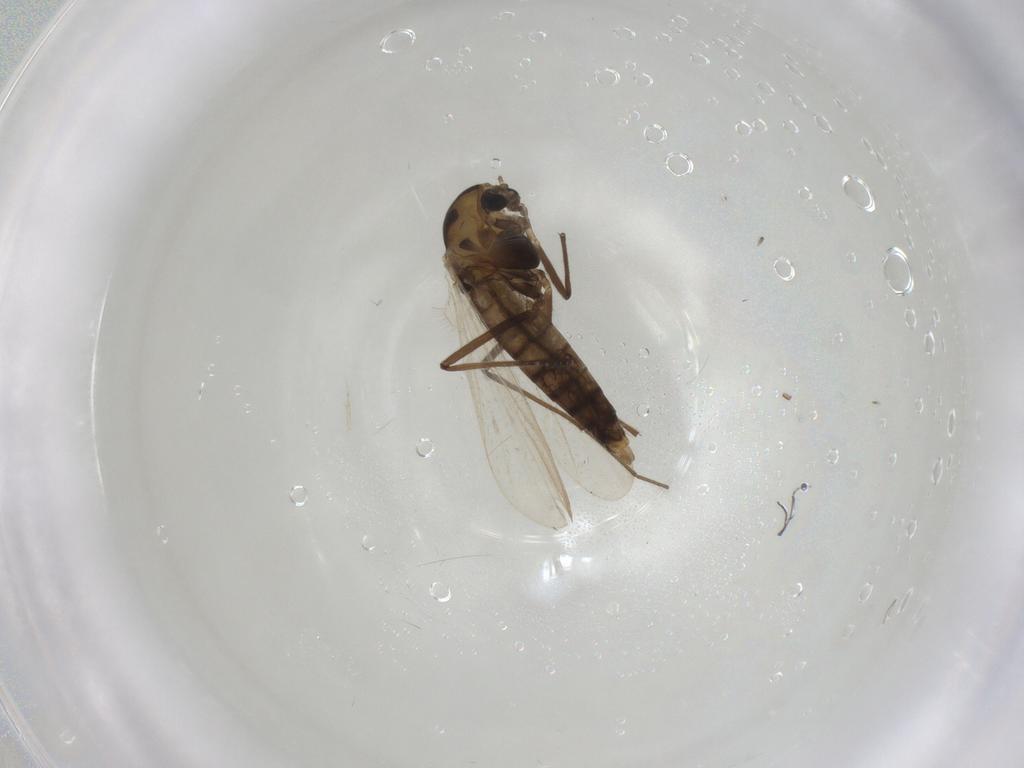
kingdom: Animalia
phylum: Arthropoda
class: Insecta
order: Diptera
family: Chironomidae
